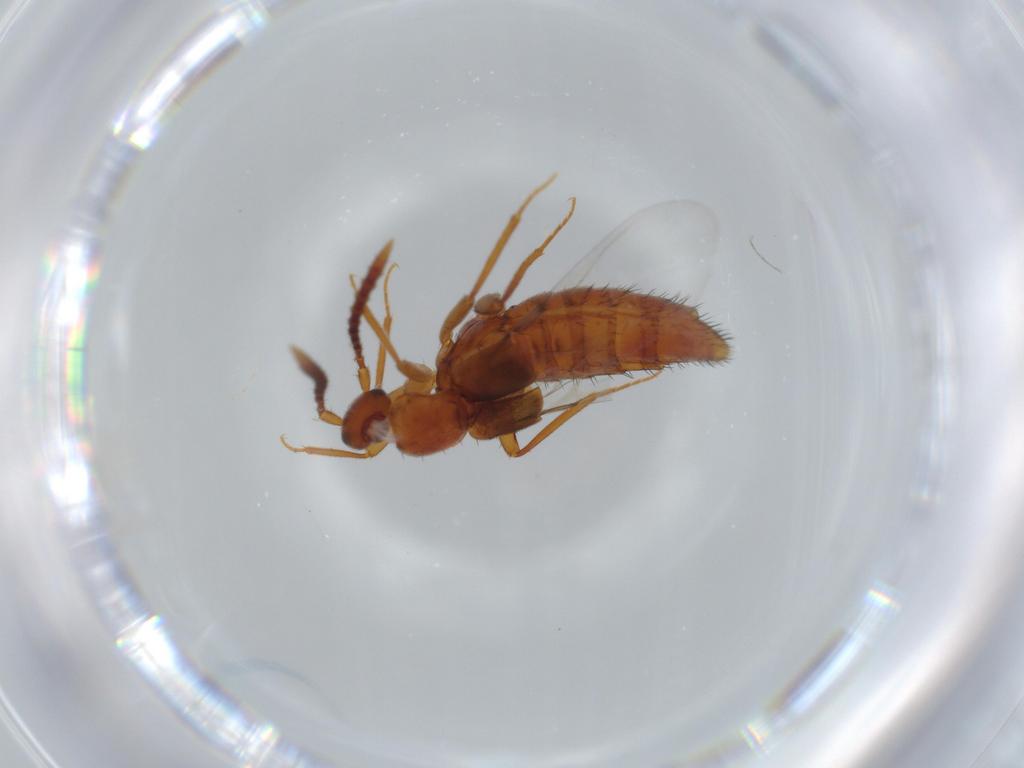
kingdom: Animalia
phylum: Arthropoda
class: Insecta
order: Coleoptera
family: Staphylinidae
